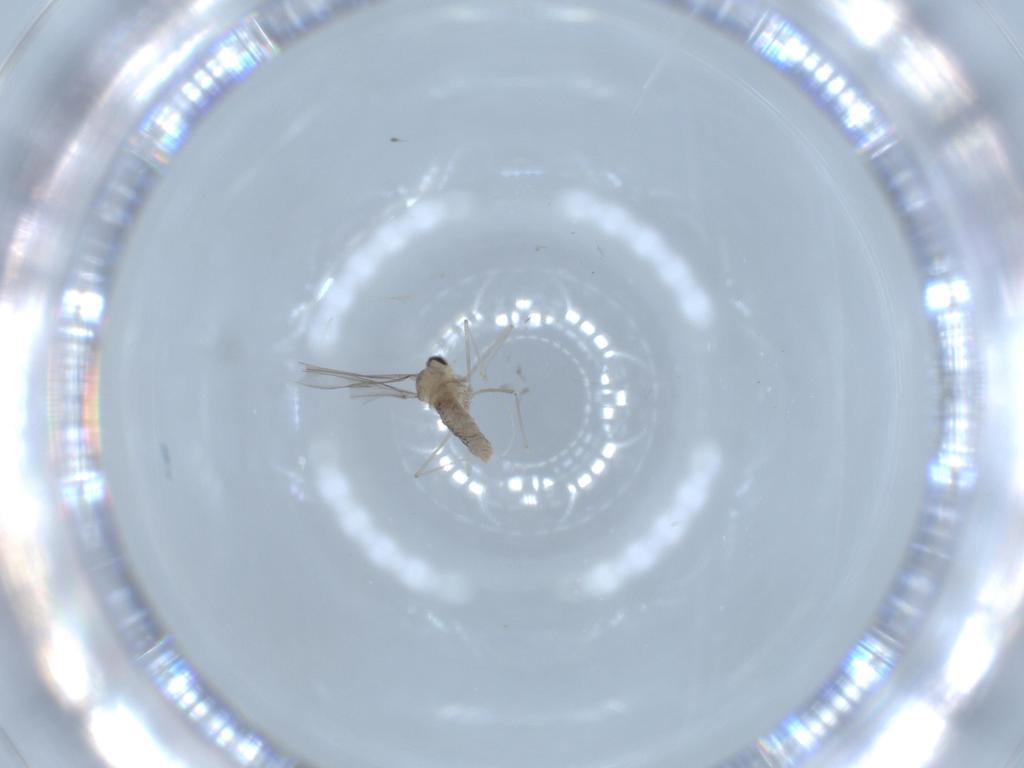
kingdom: Animalia
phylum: Arthropoda
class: Insecta
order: Diptera
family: Cecidomyiidae
